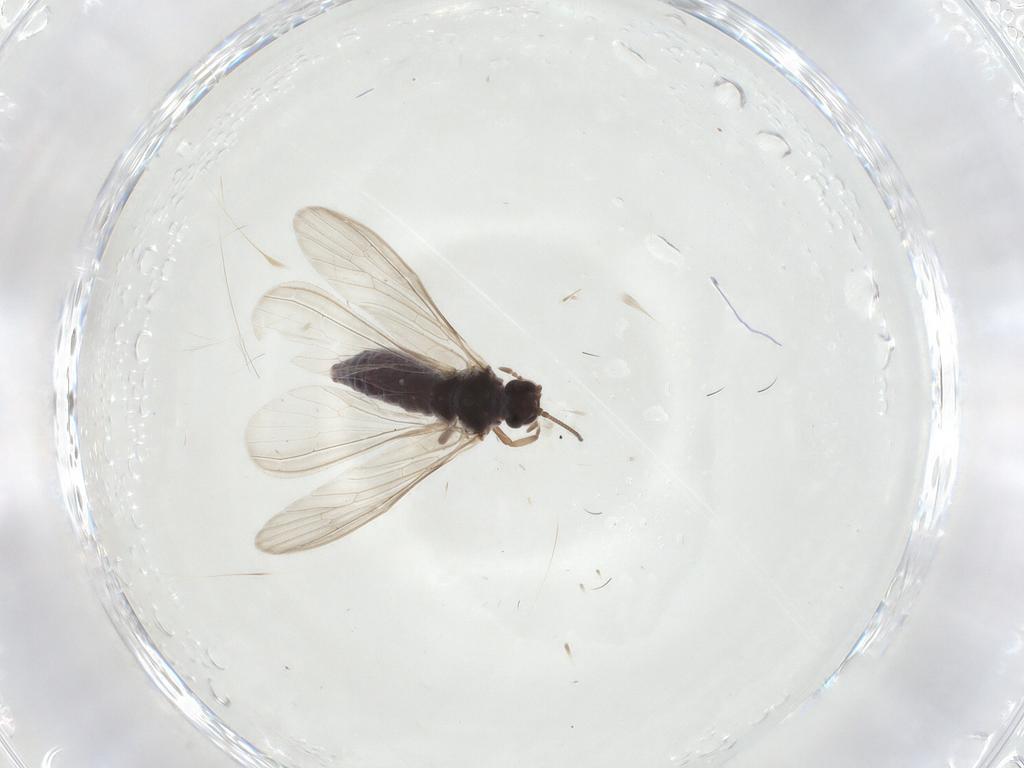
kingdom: Animalia
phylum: Arthropoda
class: Insecta
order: Neuroptera
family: Coniopterygidae
